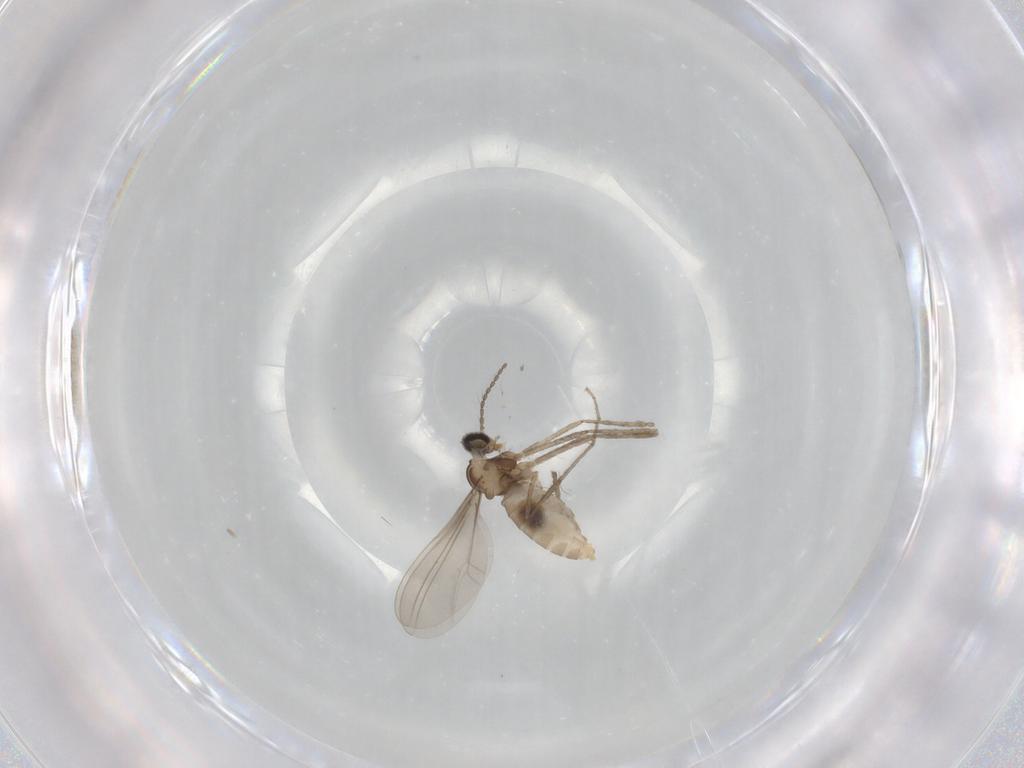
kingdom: Animalia
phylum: Arthropoda
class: Insecta
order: Diptera
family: Cecidomyiidae
